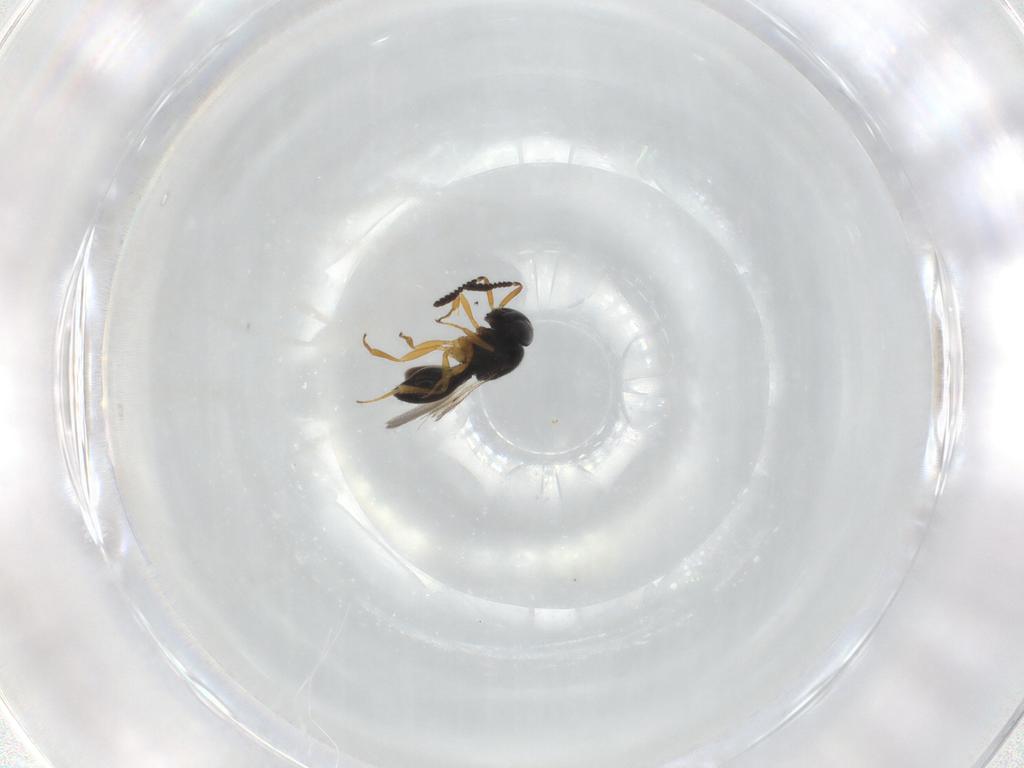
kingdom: Animalia
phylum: Arthropoda
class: Insecta
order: Hymenoptera
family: Scelionidae
